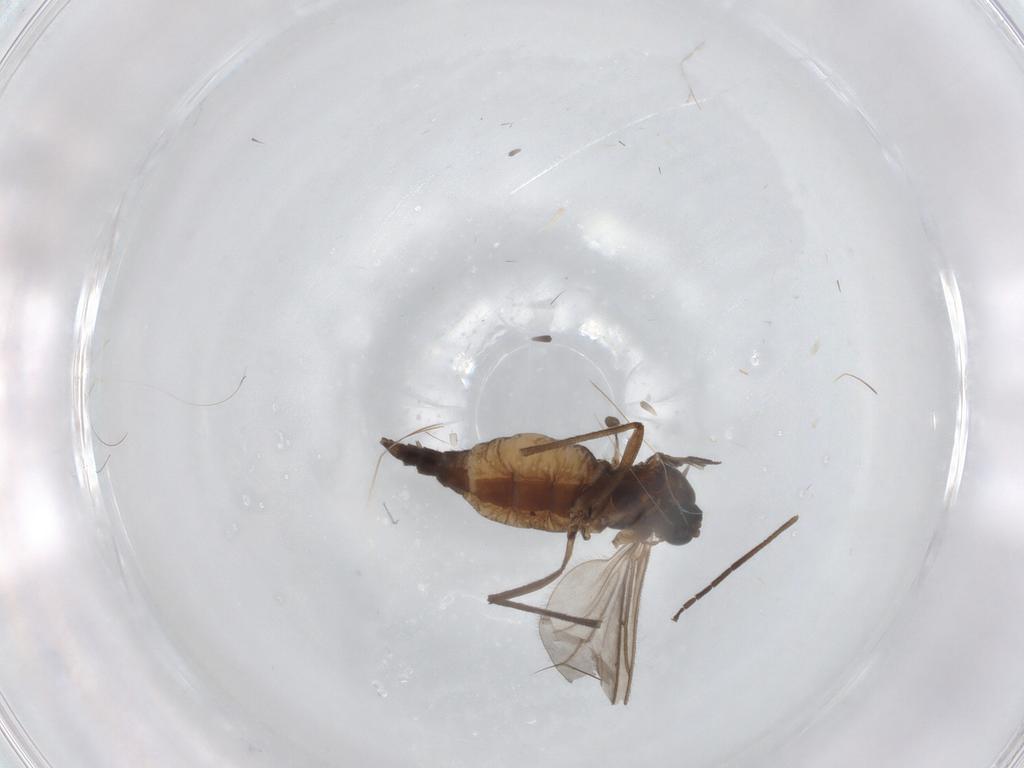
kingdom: Animalia
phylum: Arthropoda
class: Insecta
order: Diptera
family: Sciaridae
